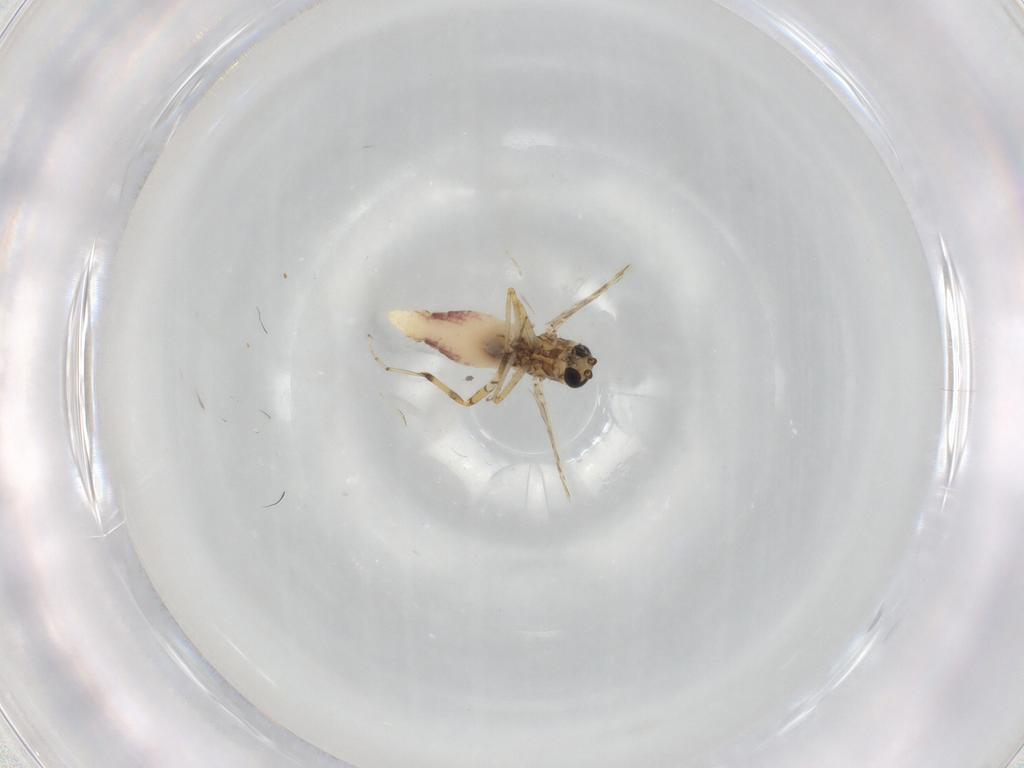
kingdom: Animalia
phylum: Arthropoda
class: Insecta
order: Diptera
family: Ceratopogonidae
